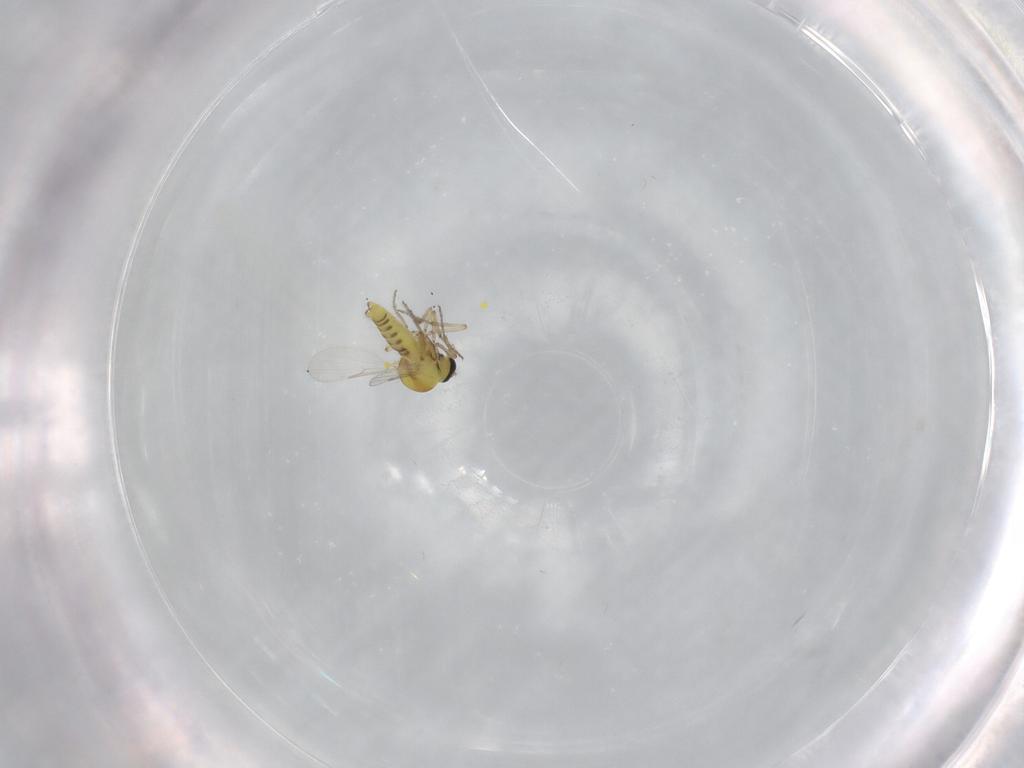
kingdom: Animalia
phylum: Arthropoda
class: Insecta
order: Diptera
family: Ceratopogonidae
